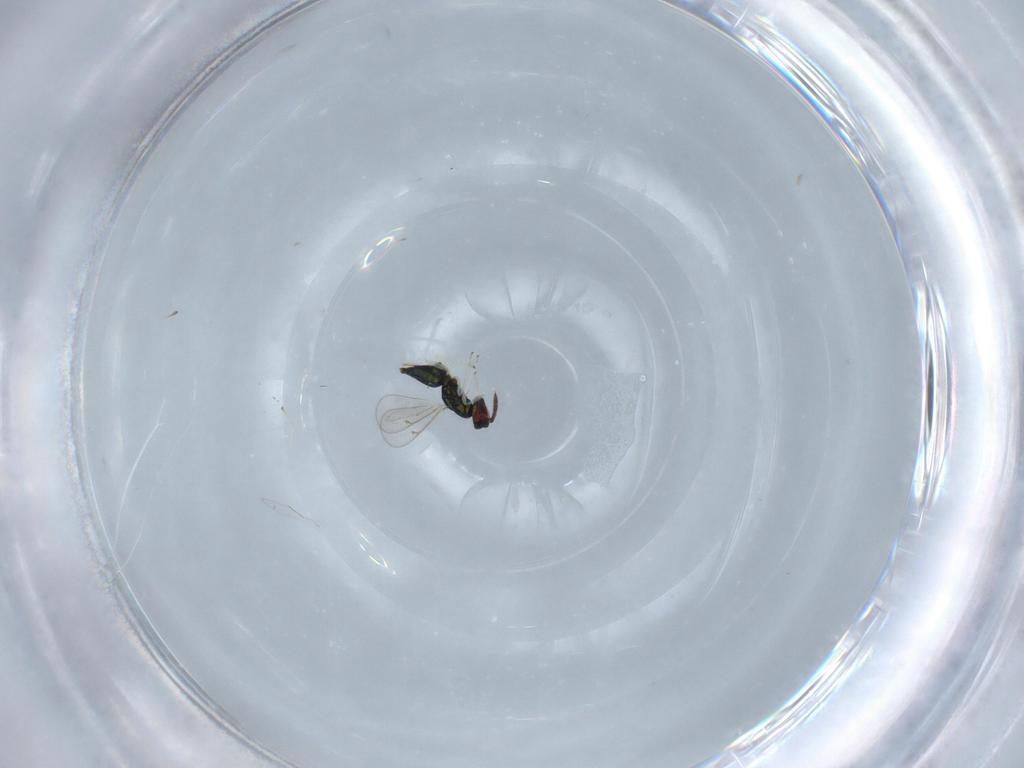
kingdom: Animalia
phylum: Arthropoda
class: Insecta
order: Hymenoptera
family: Eulophidae
